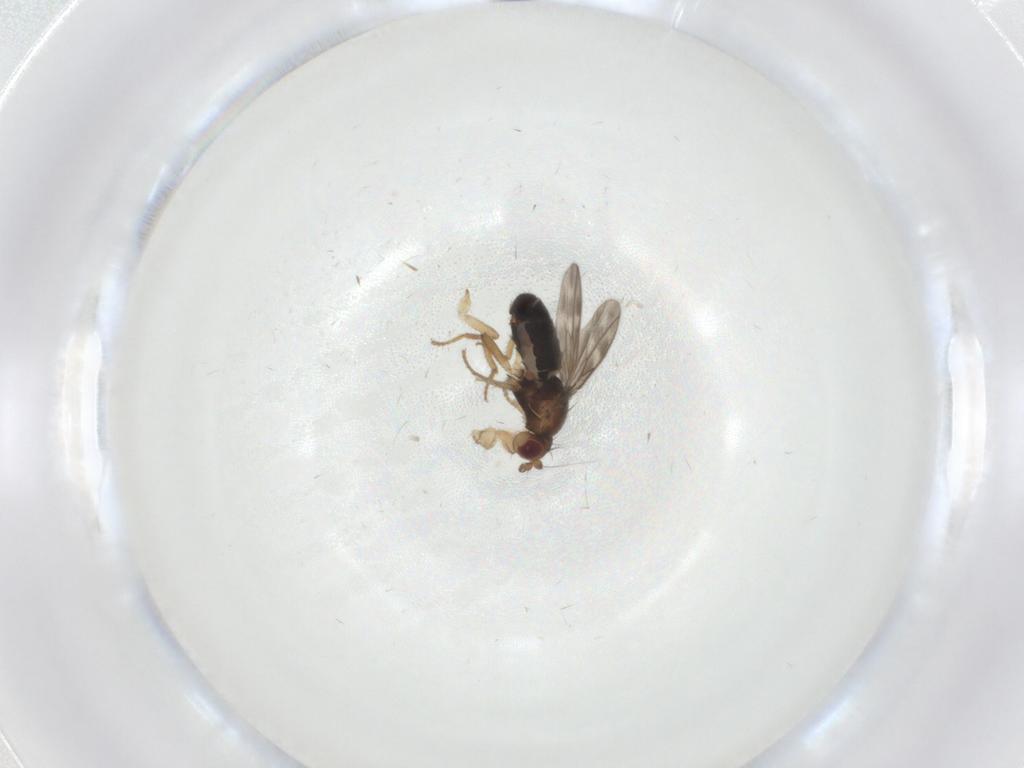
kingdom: Animalia
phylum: Arthropoda
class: Insecta
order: Diptera
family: Sphaeroceridae
